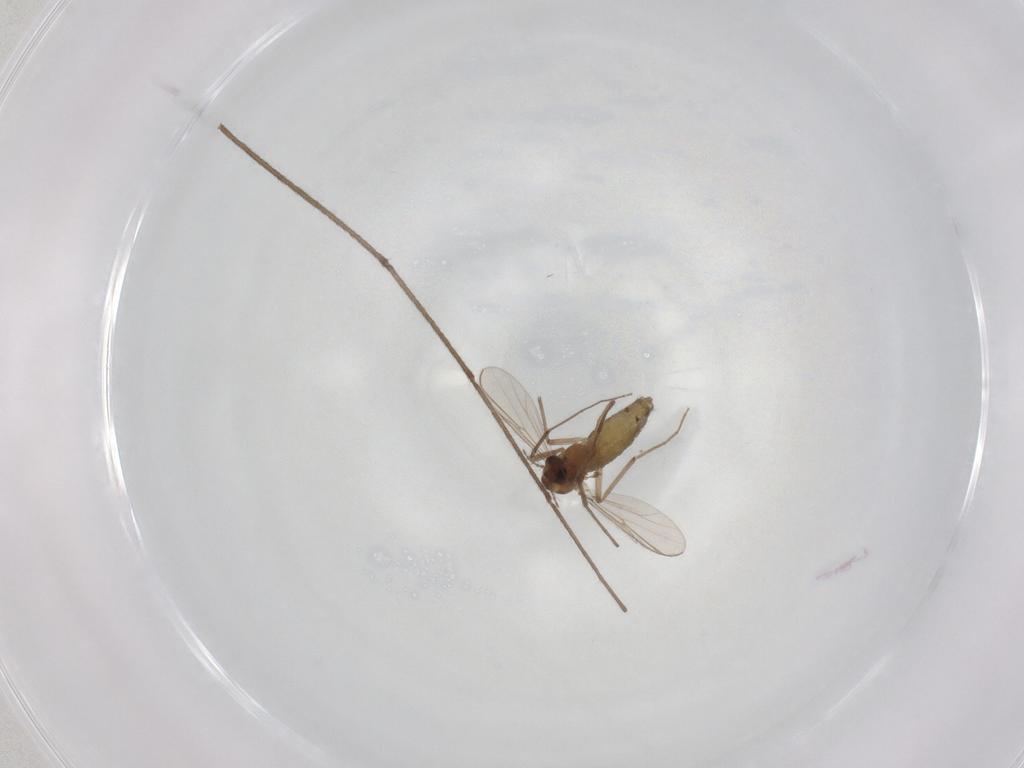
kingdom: Animalia
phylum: Arthropoda
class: Insecta
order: Diptera
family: Chironomidae
